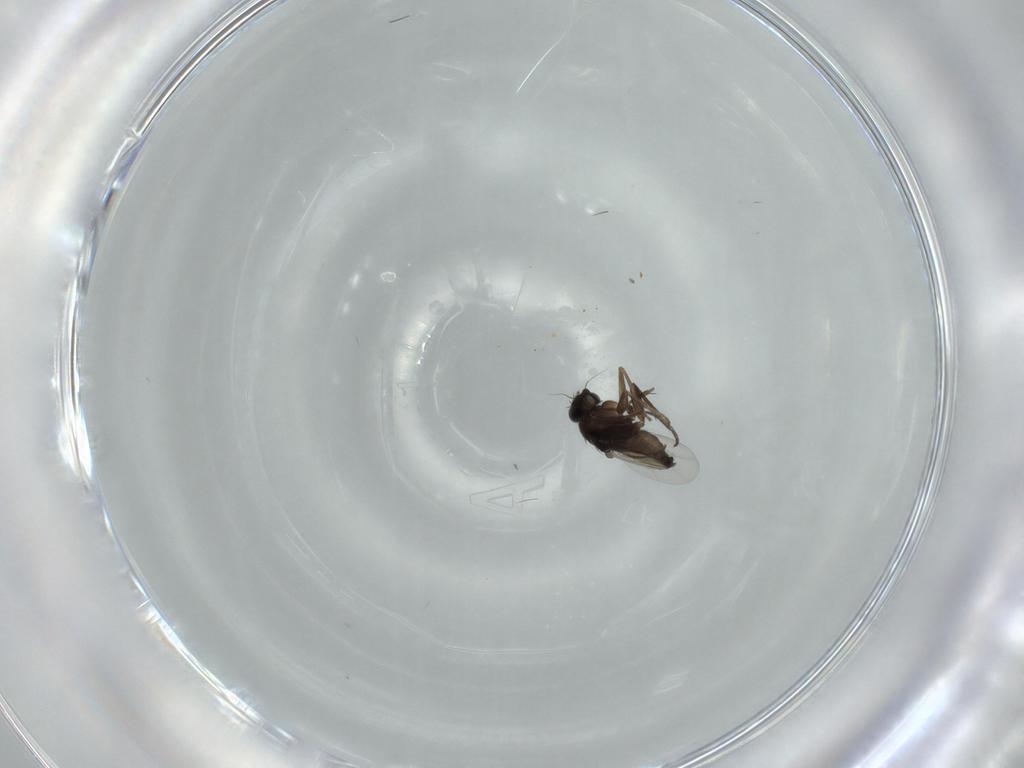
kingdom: Animalia
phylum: Arthropoda
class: Insecta
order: Diptera
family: Phoridae
